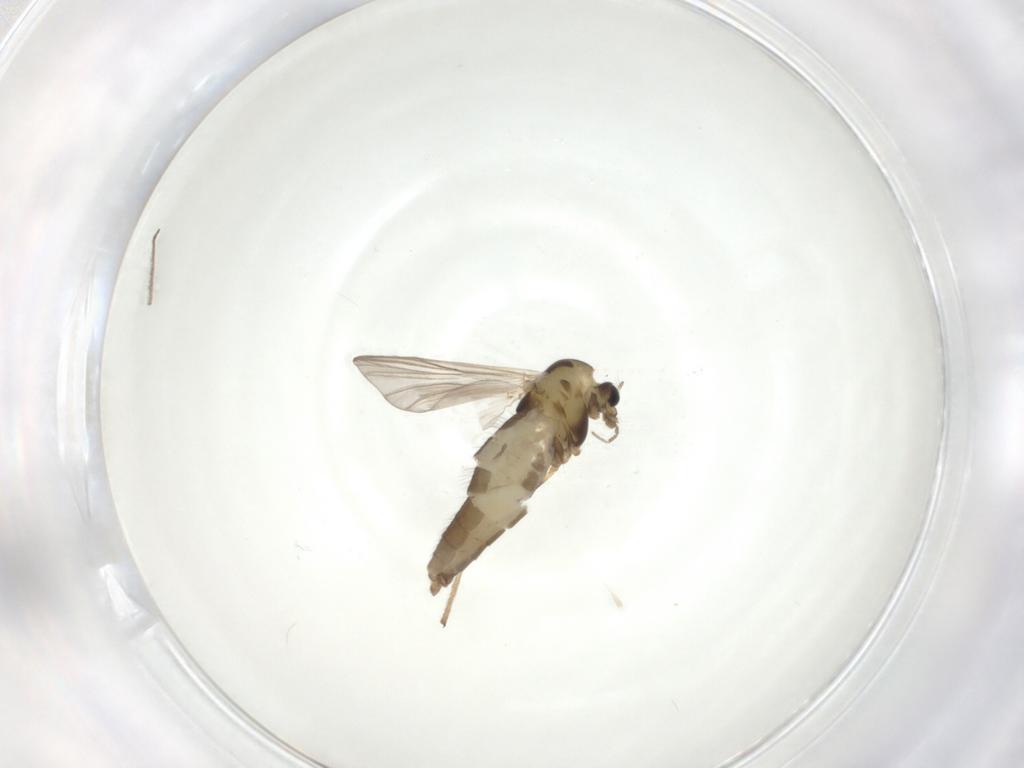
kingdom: Animalia
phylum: Arthropoda
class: Insecta
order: Diptera
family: Chironomidae
